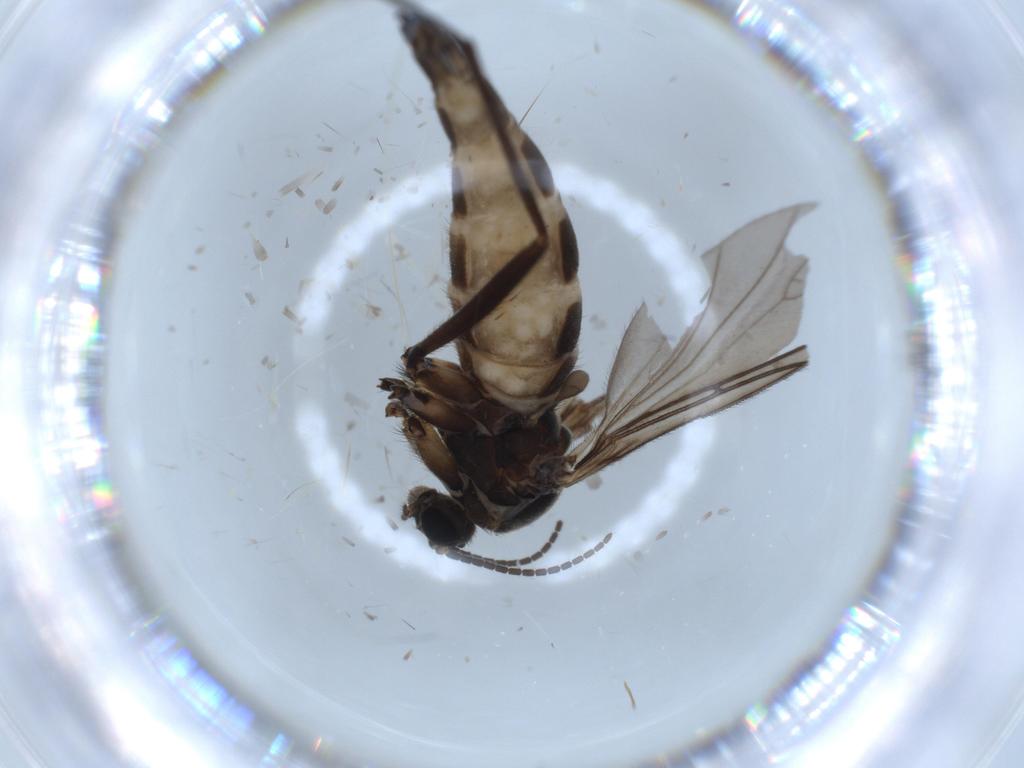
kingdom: Animalia
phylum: Arthropoda
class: Insecta
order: Diptera
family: Sciaridae
